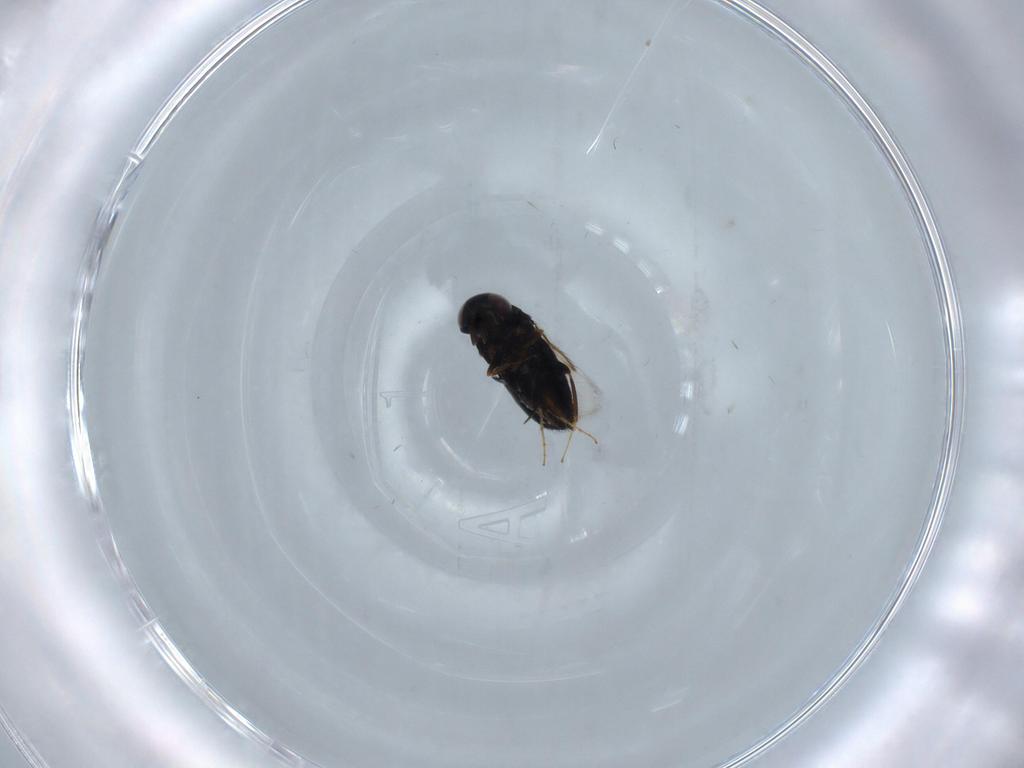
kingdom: Animalia
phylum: Arthropoda
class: Insecta
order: Hymenoptera
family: Signiphoridae
